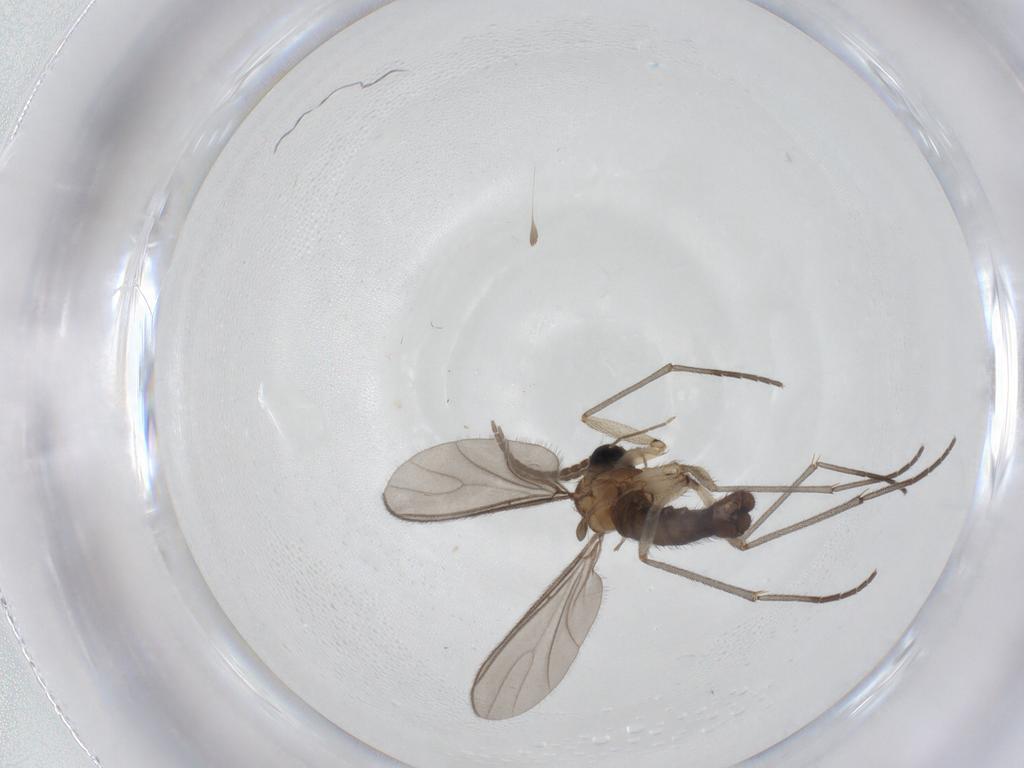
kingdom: Animalia
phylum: Arthropoda
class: Insecta
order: Diptera
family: Sciaridae
